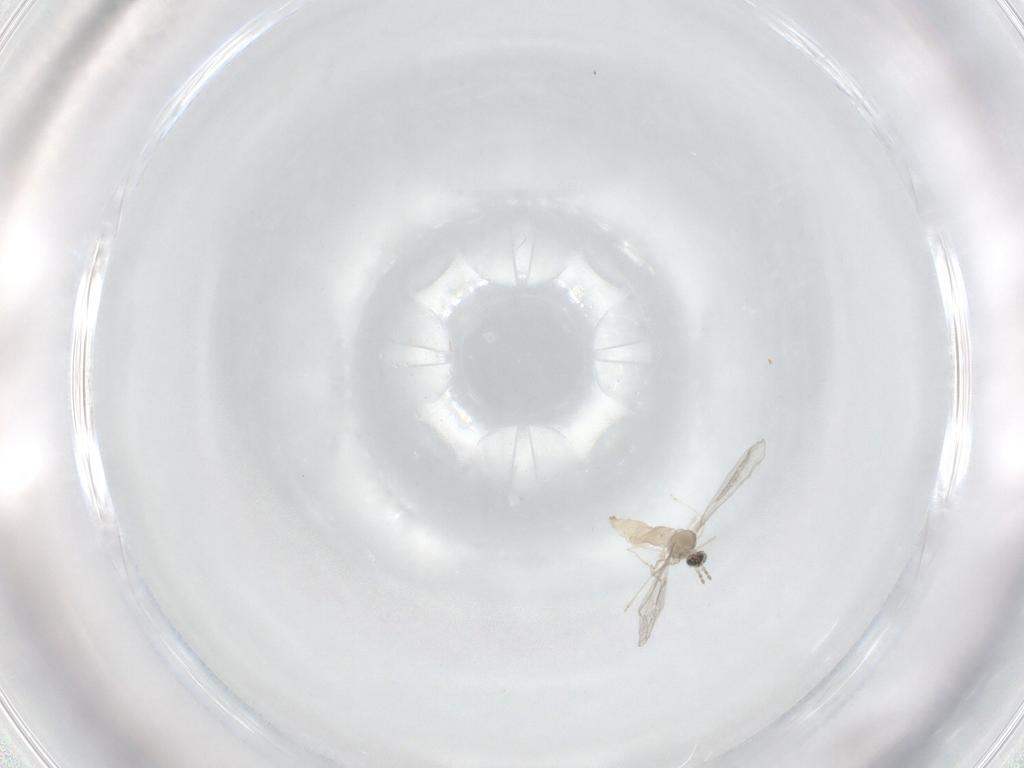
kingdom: Animalia
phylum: Arthropoda
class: Insecta
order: Diptera
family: Cecidomyiidae
